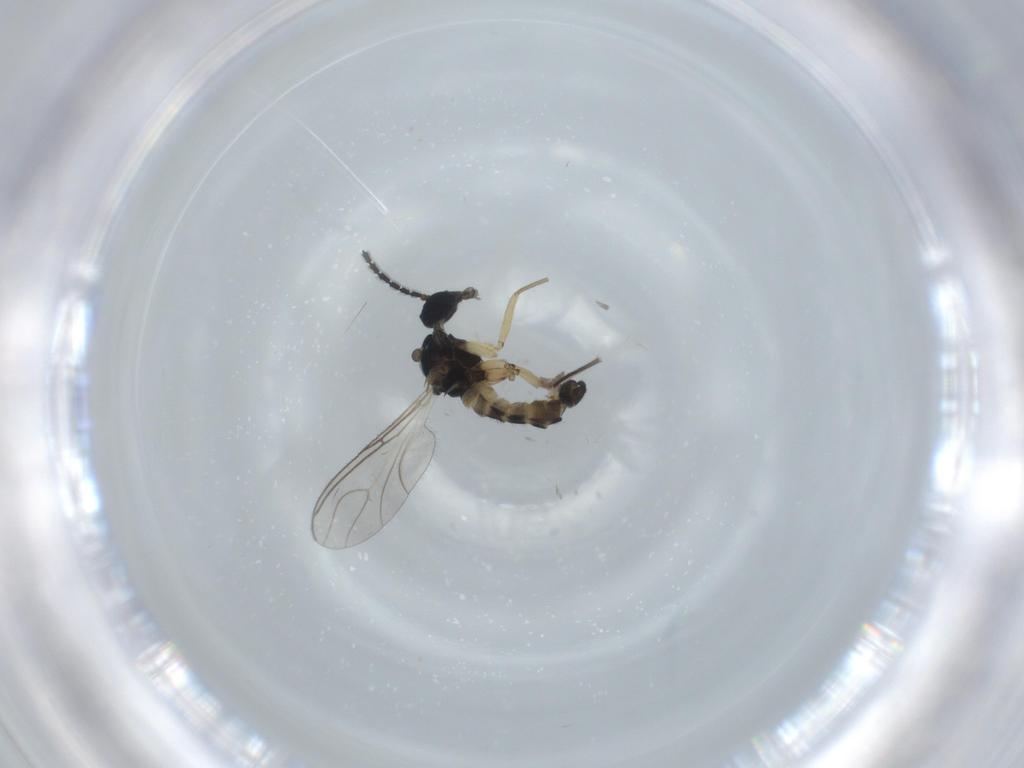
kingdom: Animalia
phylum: Arthropoda
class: Insecta
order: Diptera
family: Sciaridae
